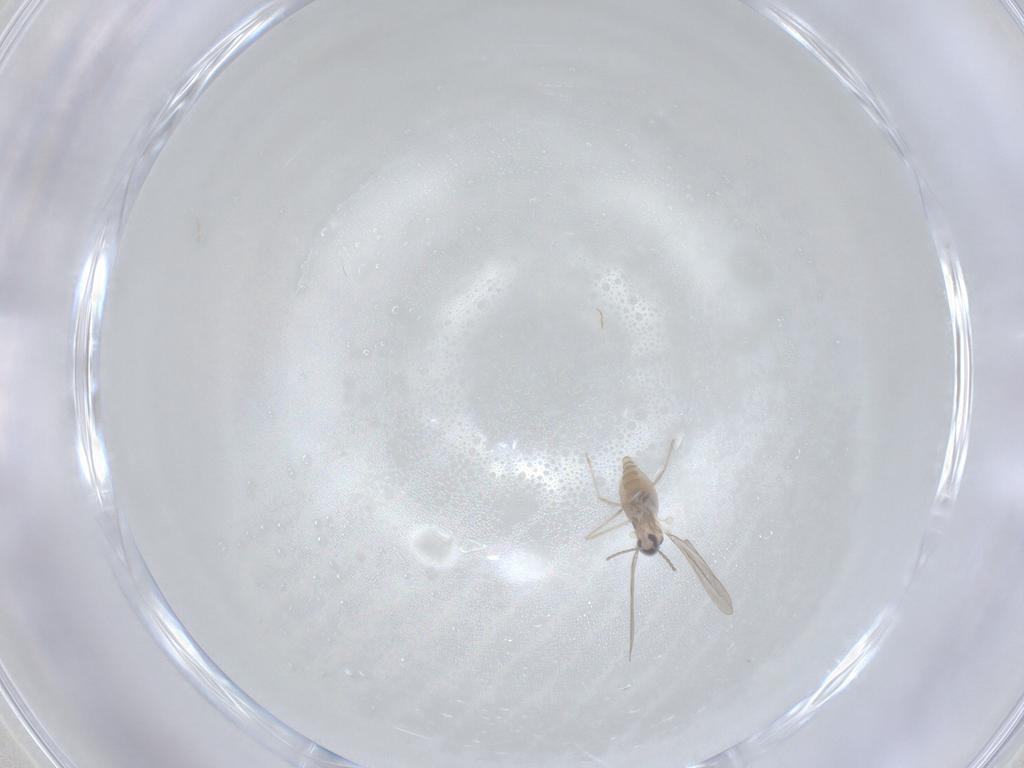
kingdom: Animalia
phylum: Arthropoda
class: Insecta
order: Diptera
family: Cecidomyiidae
